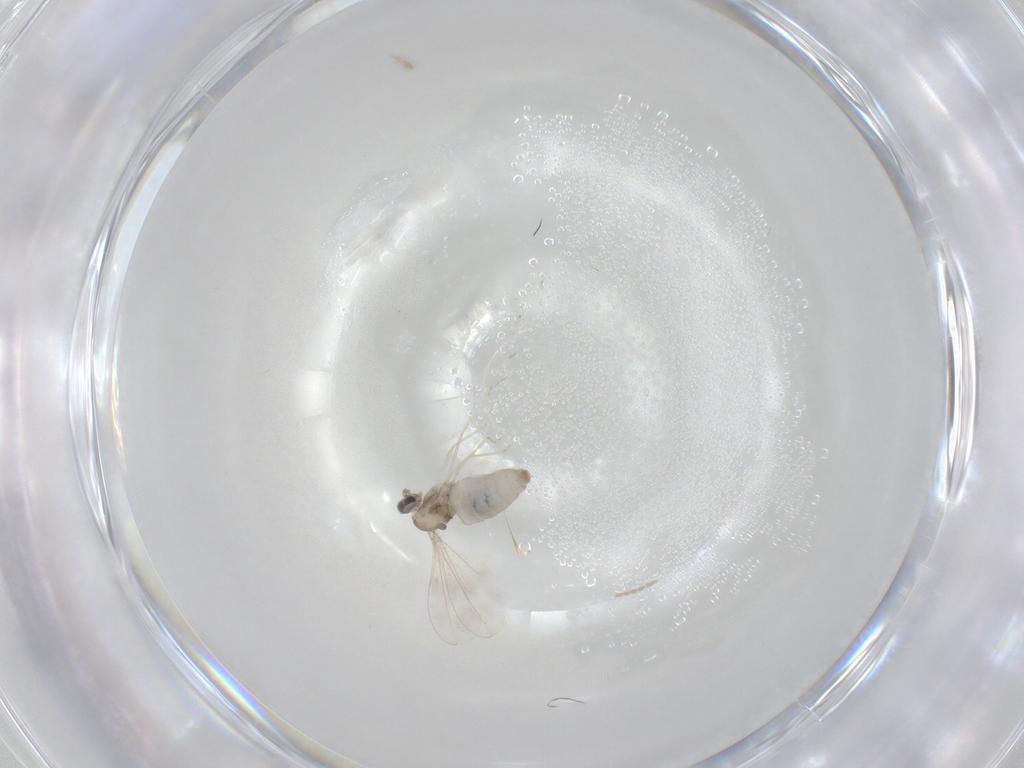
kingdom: Animalia
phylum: Arthropoda
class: Insecta
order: Diptera
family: Cecidomyiidae
